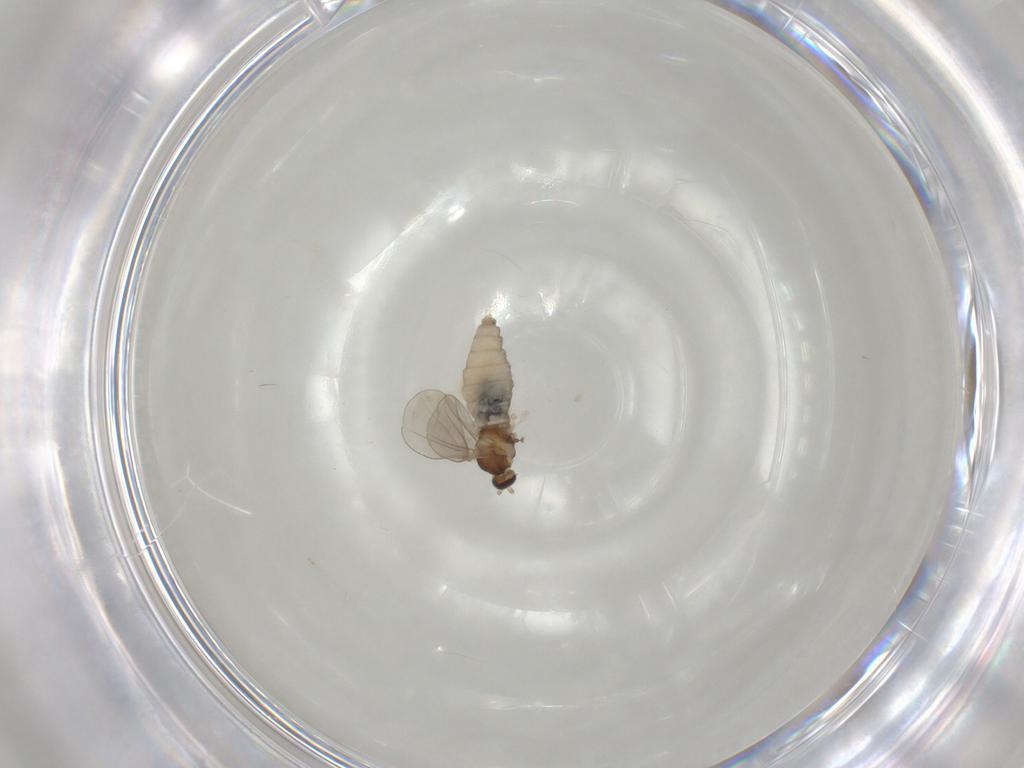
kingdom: Animalia
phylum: Arthropoda
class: Insecta
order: Diptera
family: Cecidomyiidae
